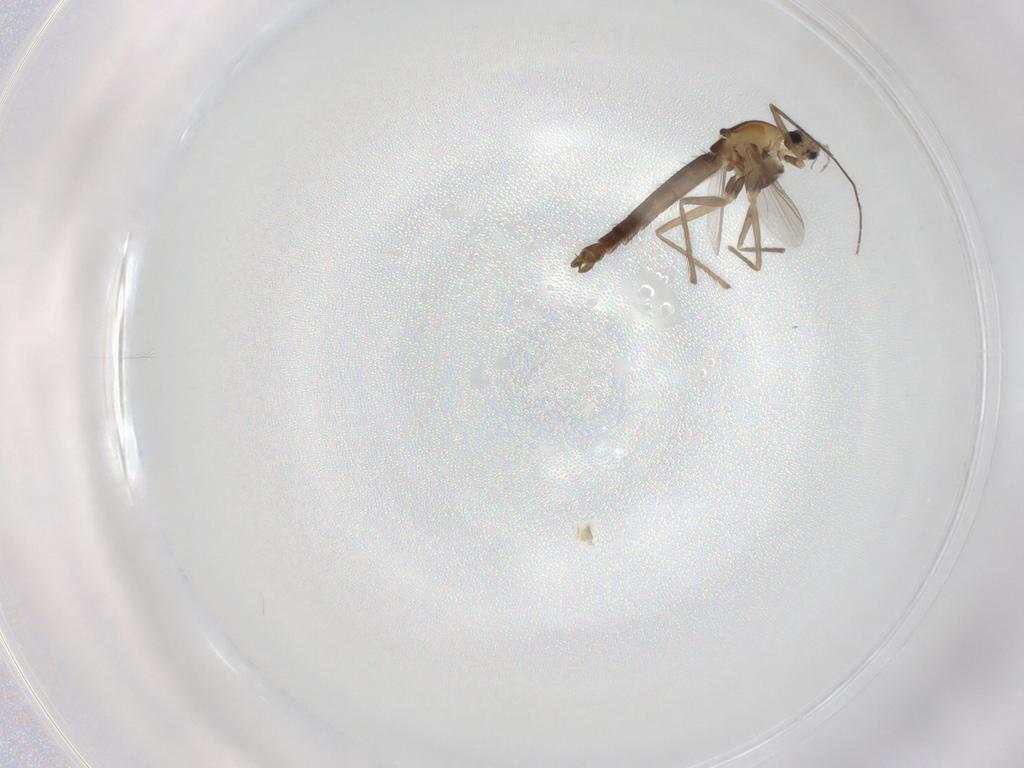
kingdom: Animalia
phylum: Arthropoda
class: Insecta
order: Diptera
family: Chironomidae
